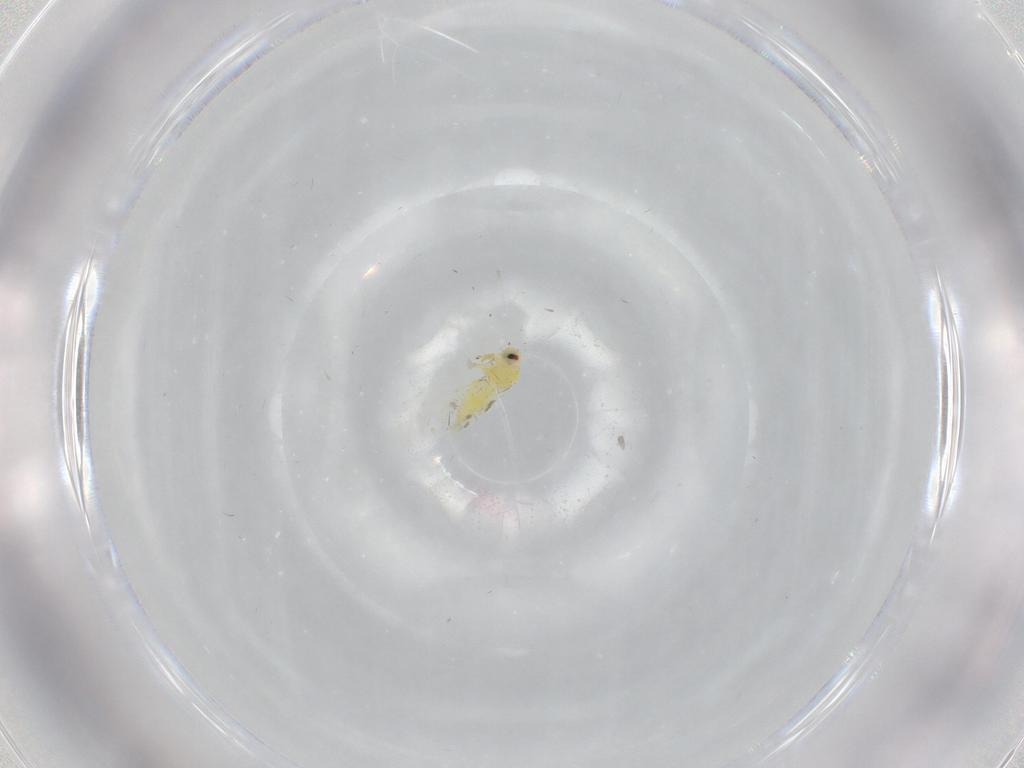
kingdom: Animalia
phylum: Arthropoda
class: Insecta
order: Hemiptera
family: Aleyrodidae
